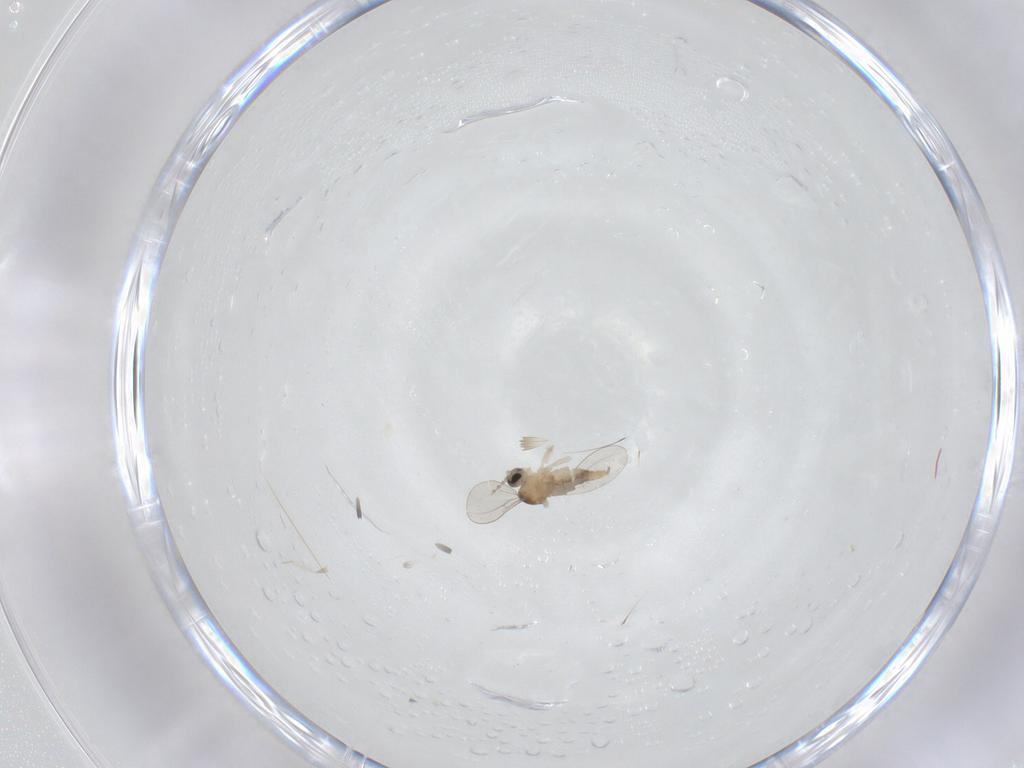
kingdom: Animalia
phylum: Arthropoda
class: Insecta
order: Diptera
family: Cecidomyiidae
